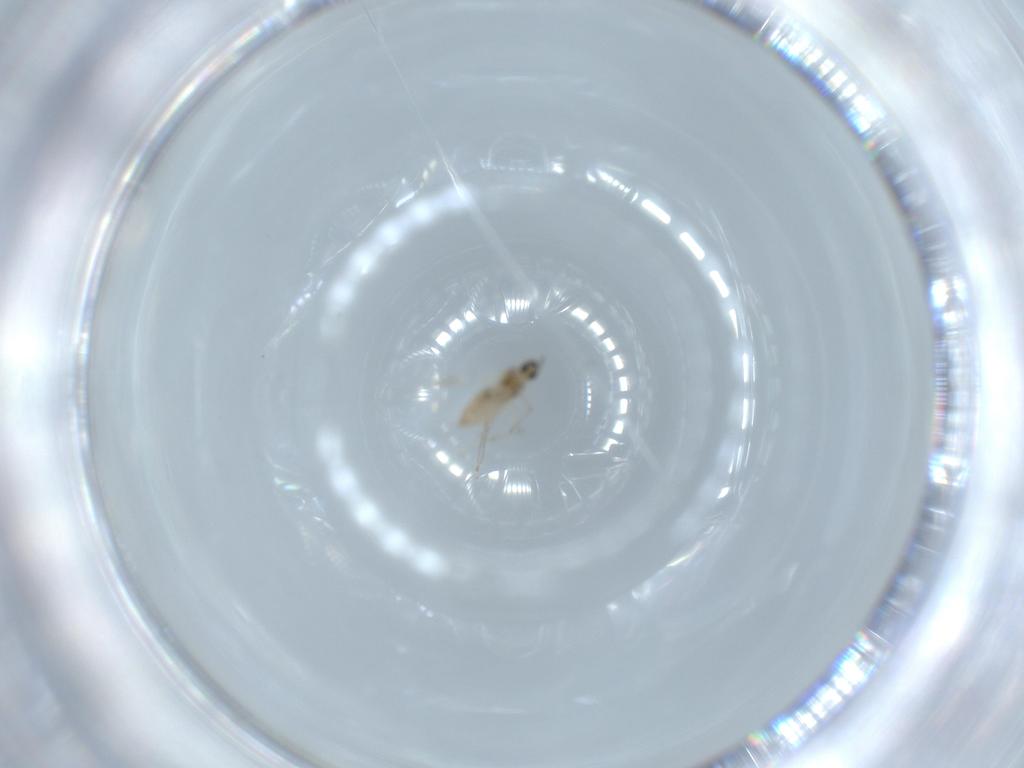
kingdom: Animalia
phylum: Arthropoda
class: Insecta
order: Diptera
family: Cecidomyiidae
